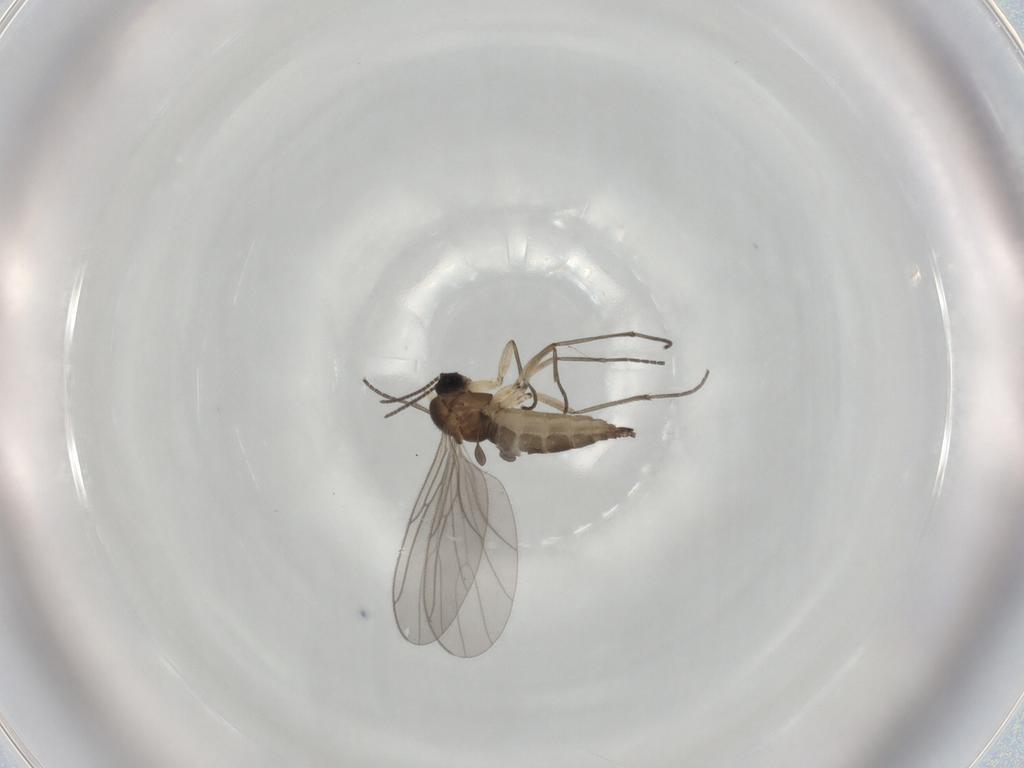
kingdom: Animalia
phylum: Arthropoda
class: Insecta
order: Diptera
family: Sciaridae
